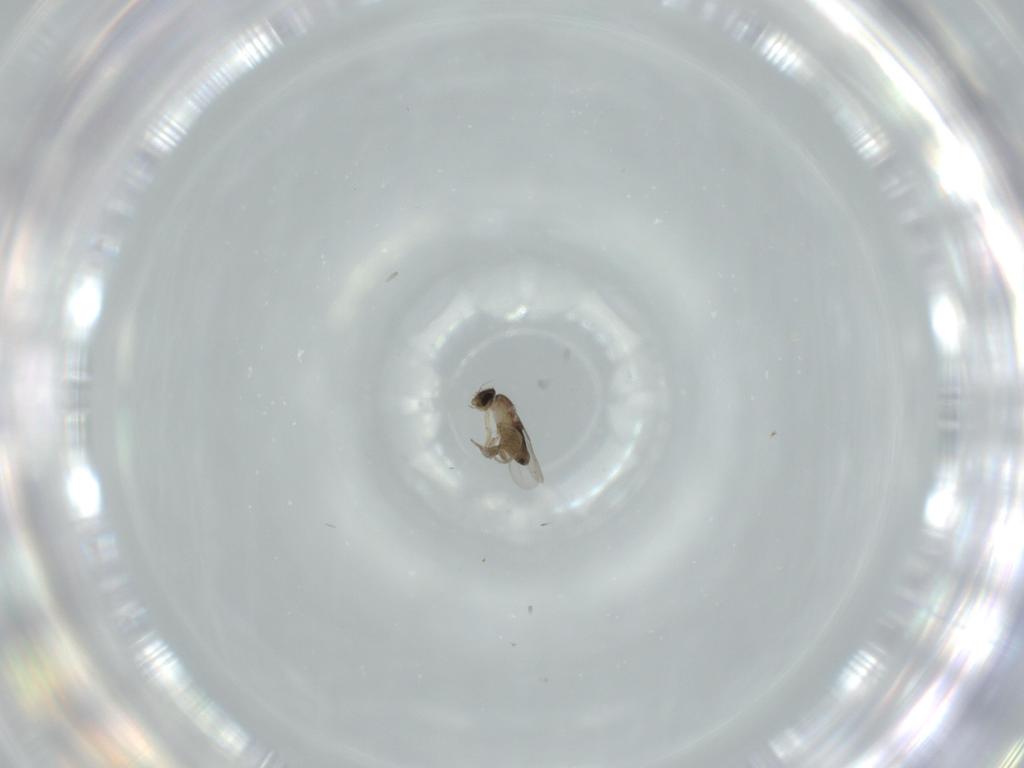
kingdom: Animalia
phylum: Arthropoda
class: Insecta
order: Diptera
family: Phoridae
